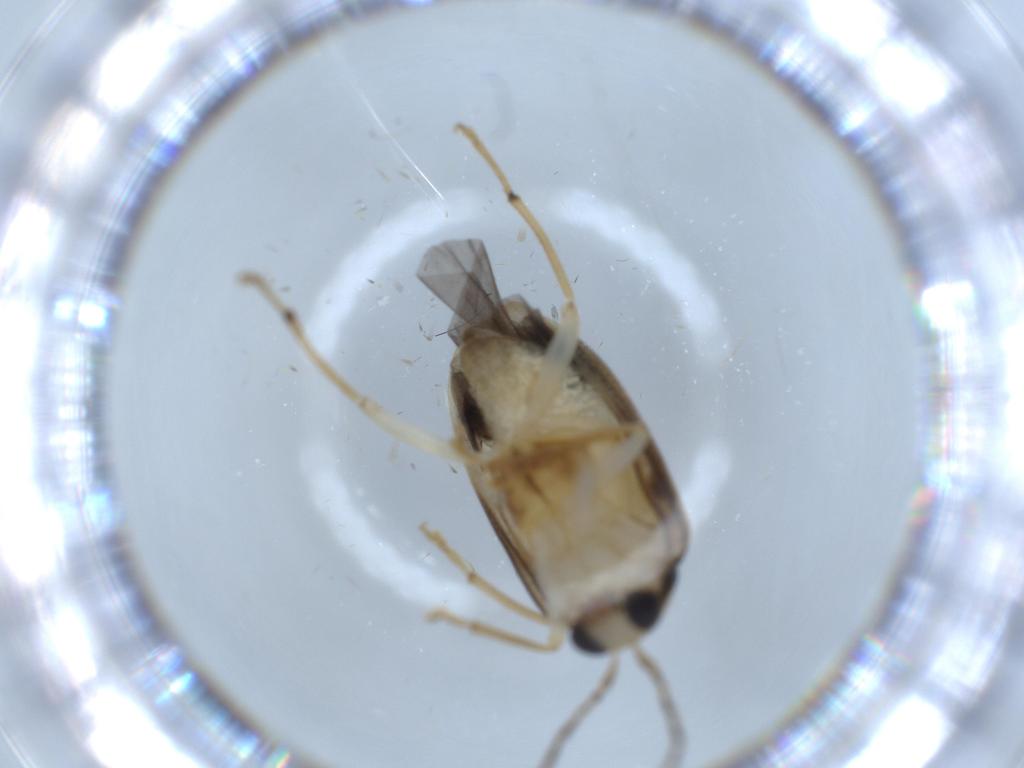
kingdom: Animalia
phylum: Arthropoda
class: Insecta
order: Coleoptera
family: Chrysomelidae
